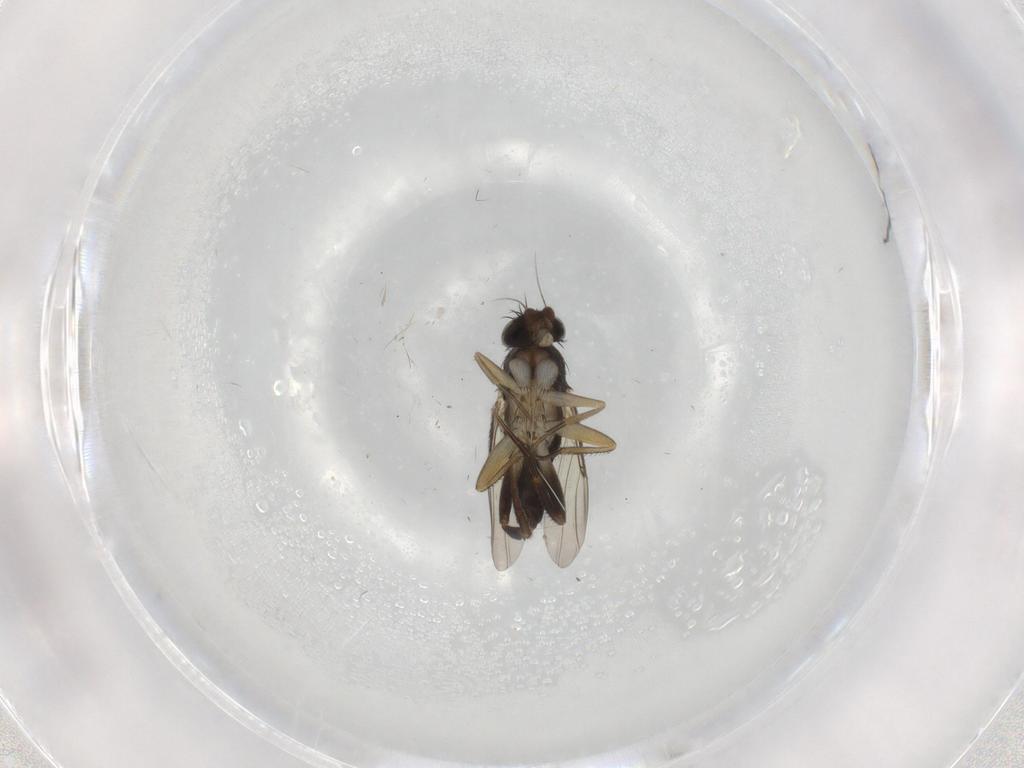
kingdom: Animalia
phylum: Arthropoda
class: Insecta
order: Diptera
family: Phoridae
